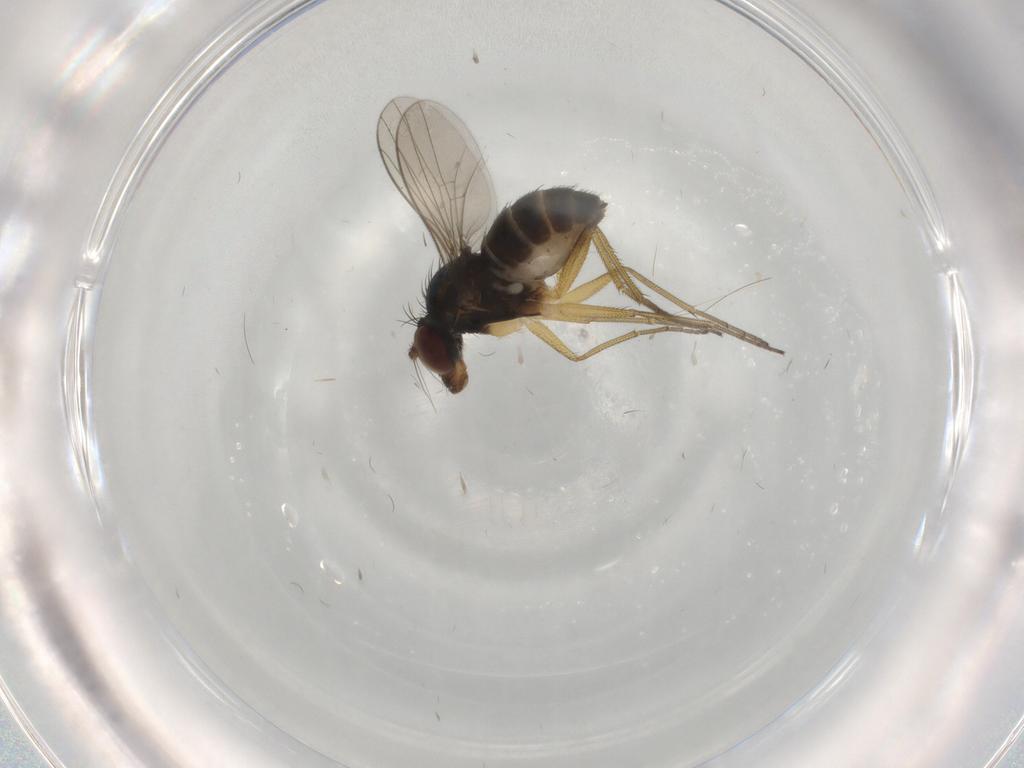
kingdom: Animalia
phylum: Arthropoda
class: Insecta
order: Diptera
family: Dolichopodidae
